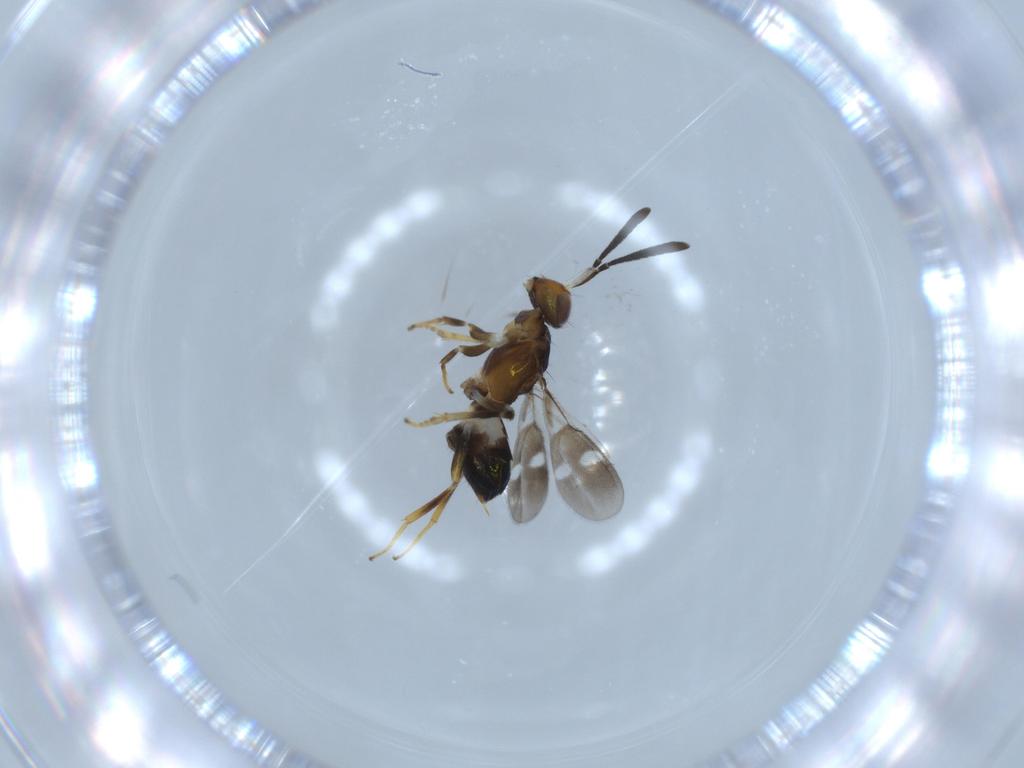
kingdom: Animalia
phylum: Arthropoda
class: Insecta
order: Hymenoptera
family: Eupelmidae
